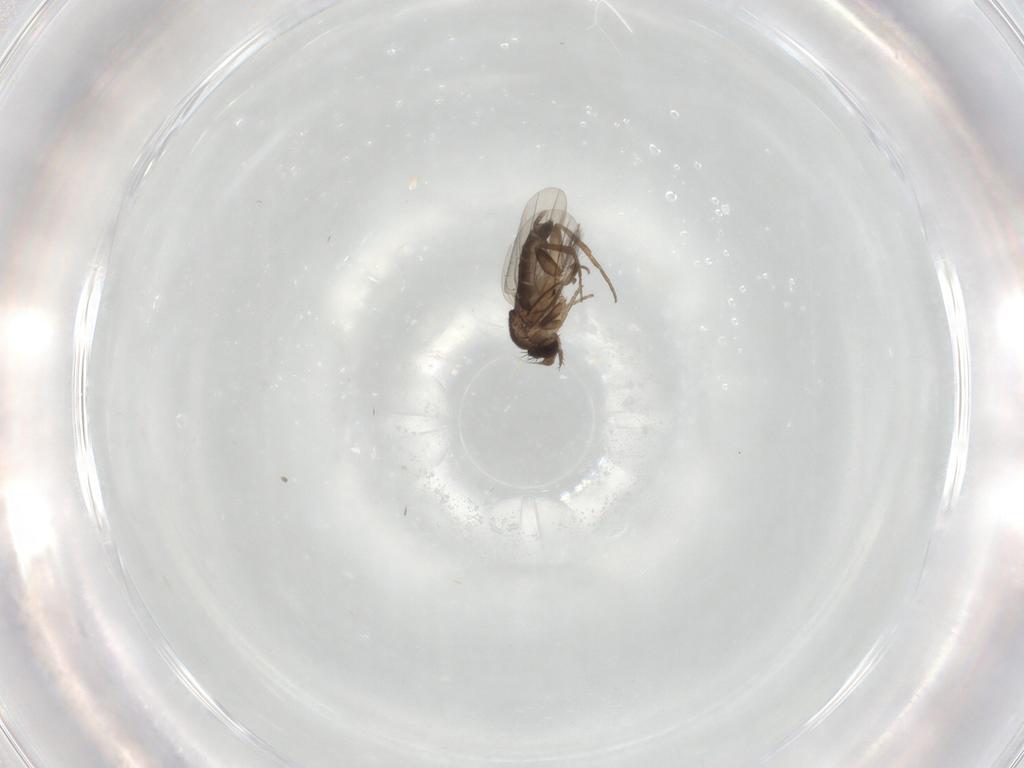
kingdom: Animalia
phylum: Arthropoda
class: Insecta
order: Diptera
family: Phoridae
